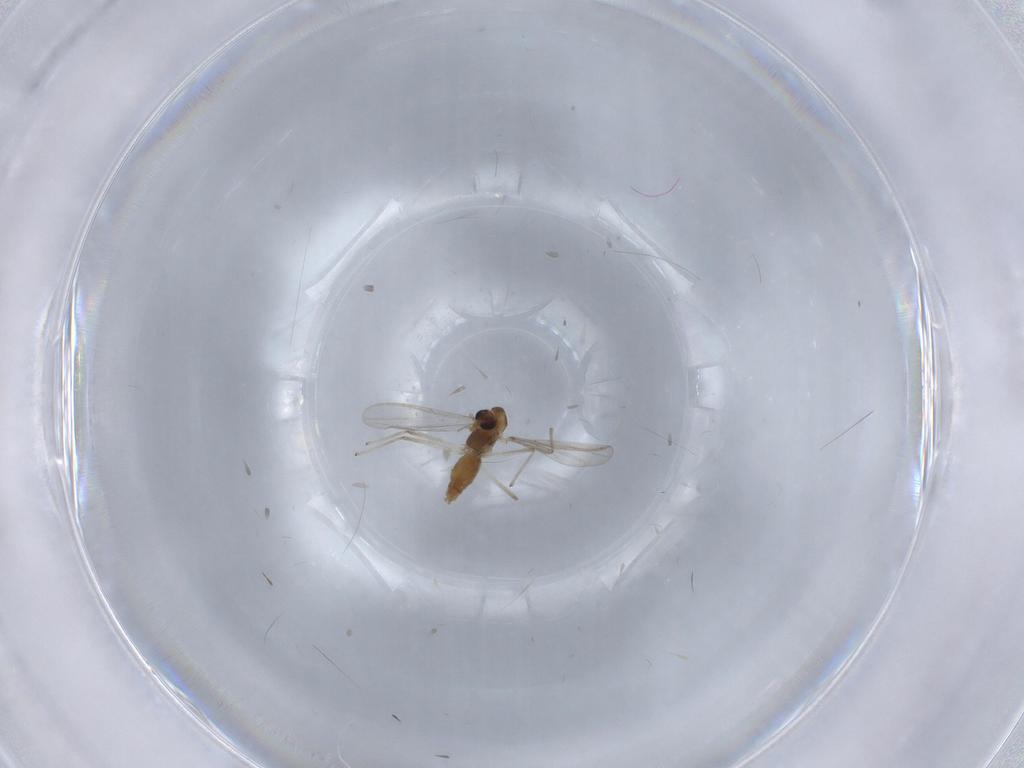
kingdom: Animalia
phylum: Arthropoda
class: Insecta
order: Diptera
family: Chironomidae
